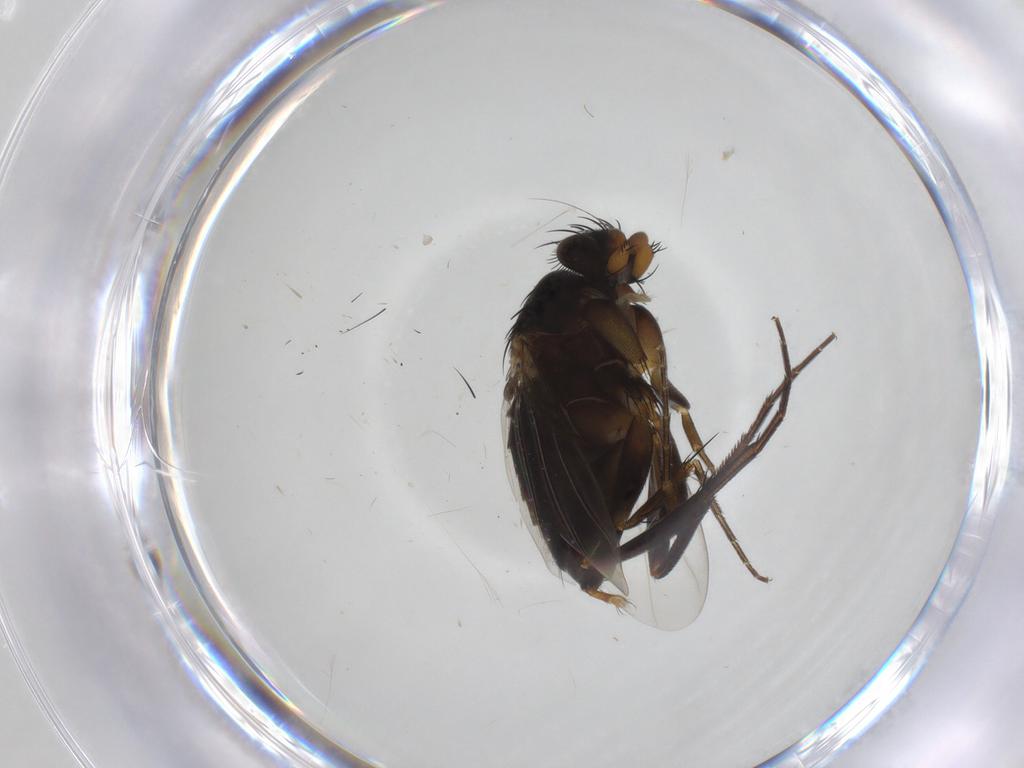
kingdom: Animalia
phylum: Arthropoda
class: Insecta
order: Diptera
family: Phoridae
